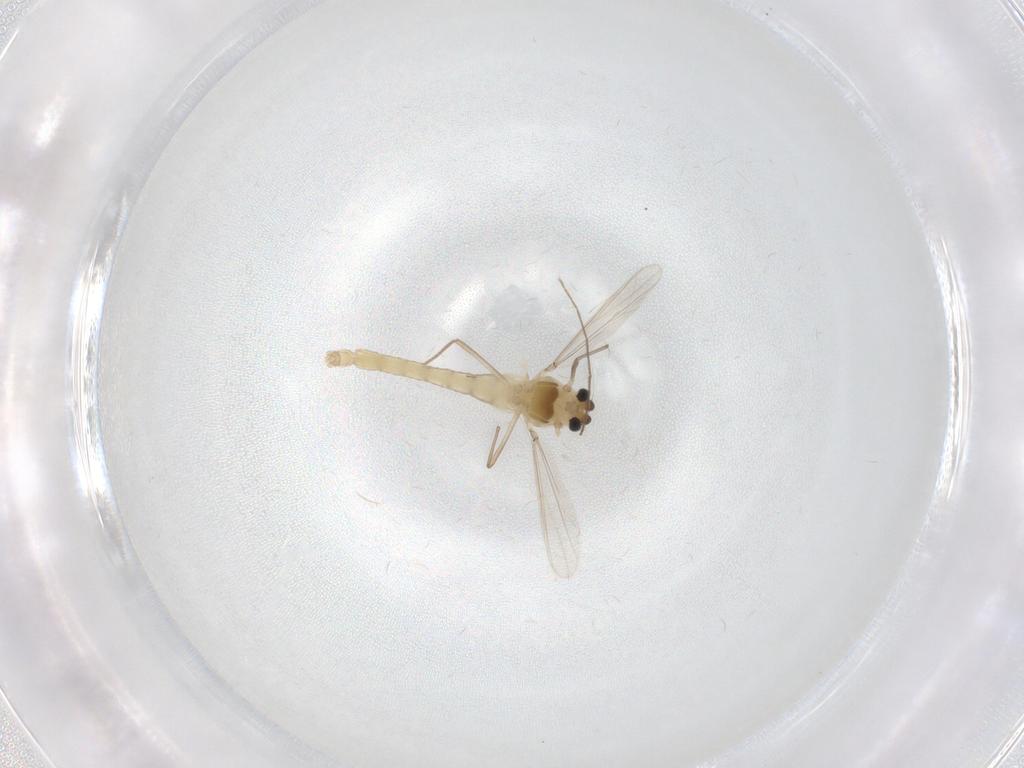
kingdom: Animalia
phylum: Arthropoda
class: Insecta
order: Diptera
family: Chironomidae
